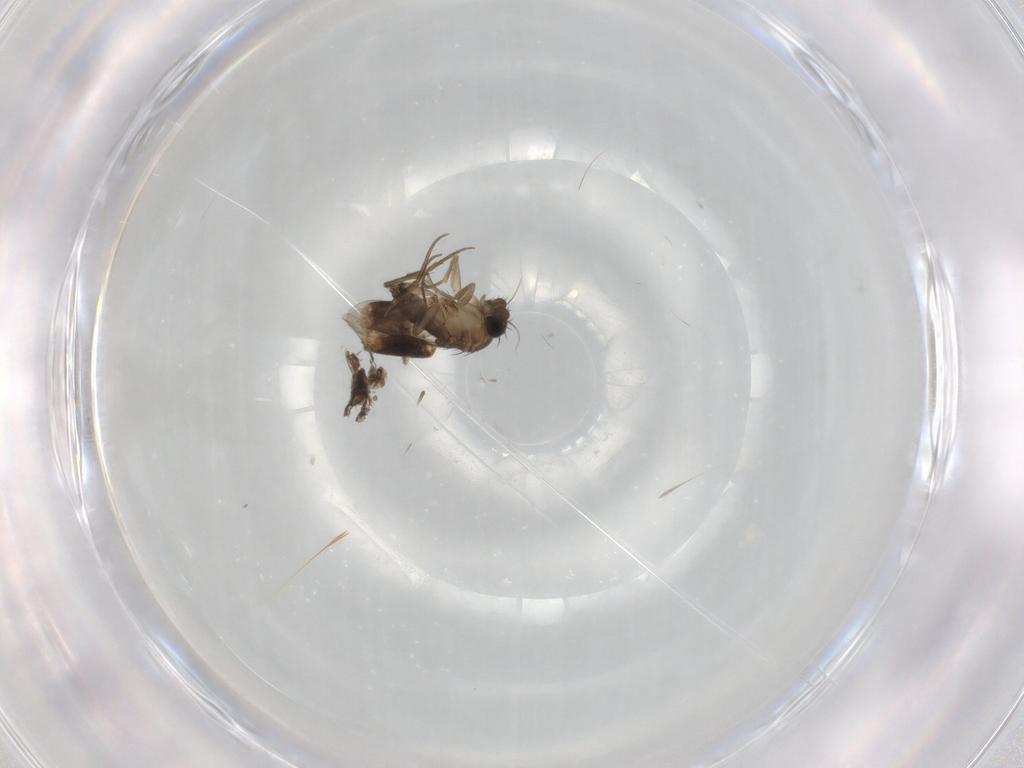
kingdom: Animalia
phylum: Arthropoda
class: Insecta
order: Diptera
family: Phoridae
